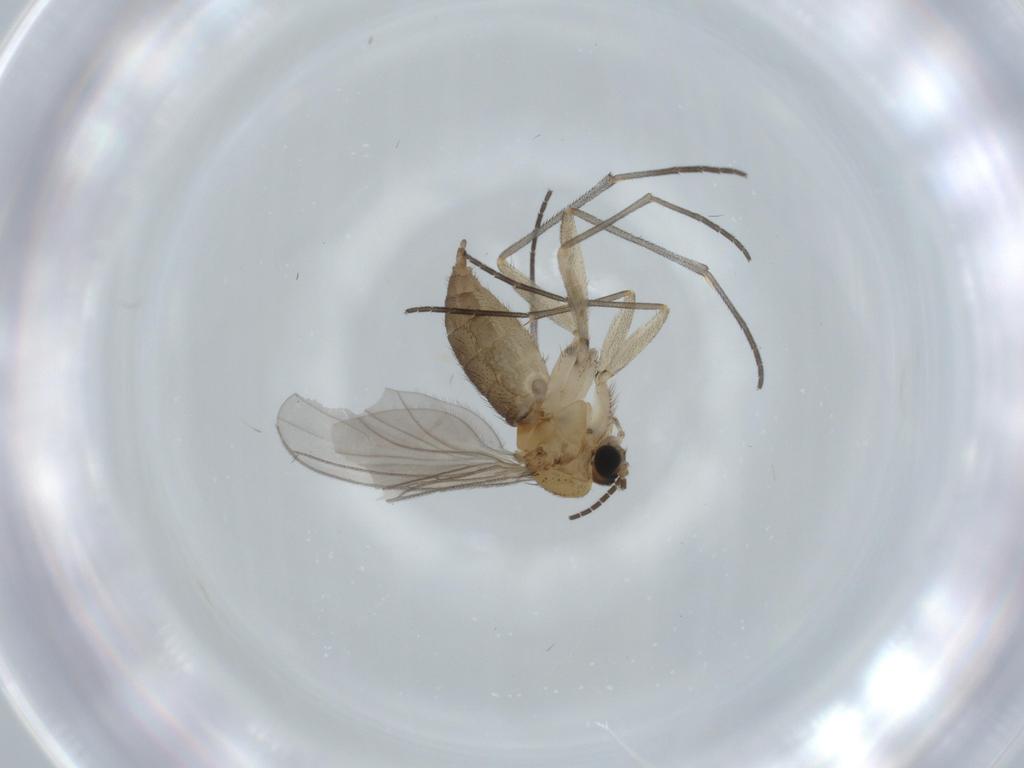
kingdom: Animalia
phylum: Arthropoda
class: Insecta
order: Diptera
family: Sciaridae
